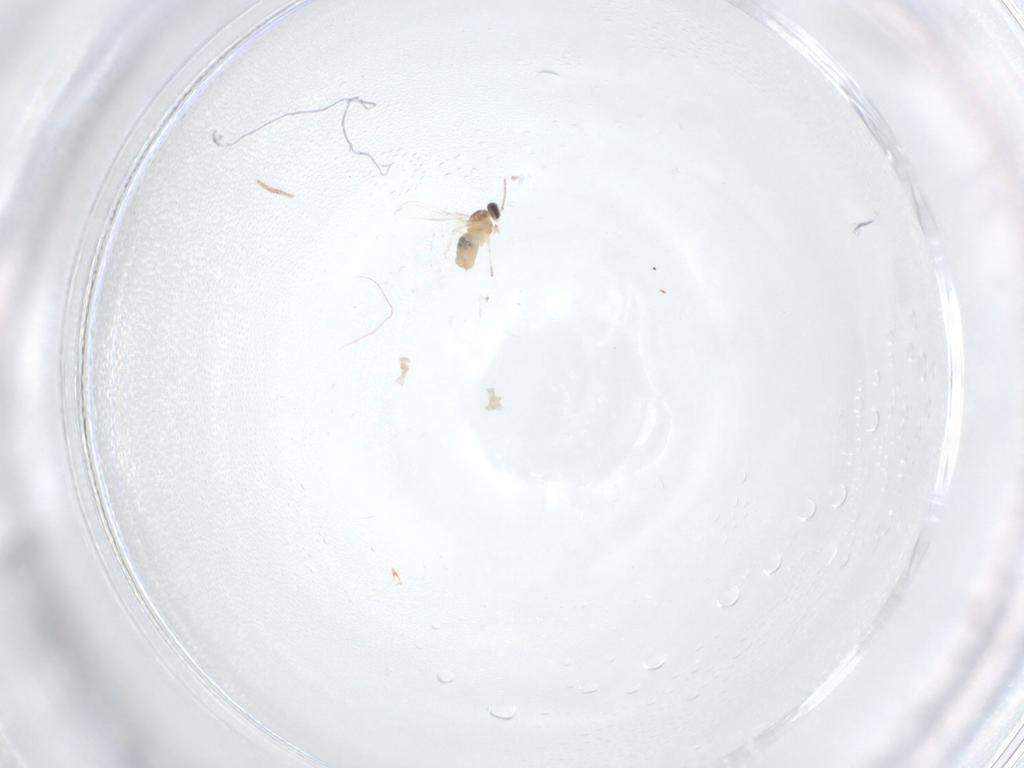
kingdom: Animalia
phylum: Arthropoda
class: Insecta
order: Diptera
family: Cecidomyiidae
